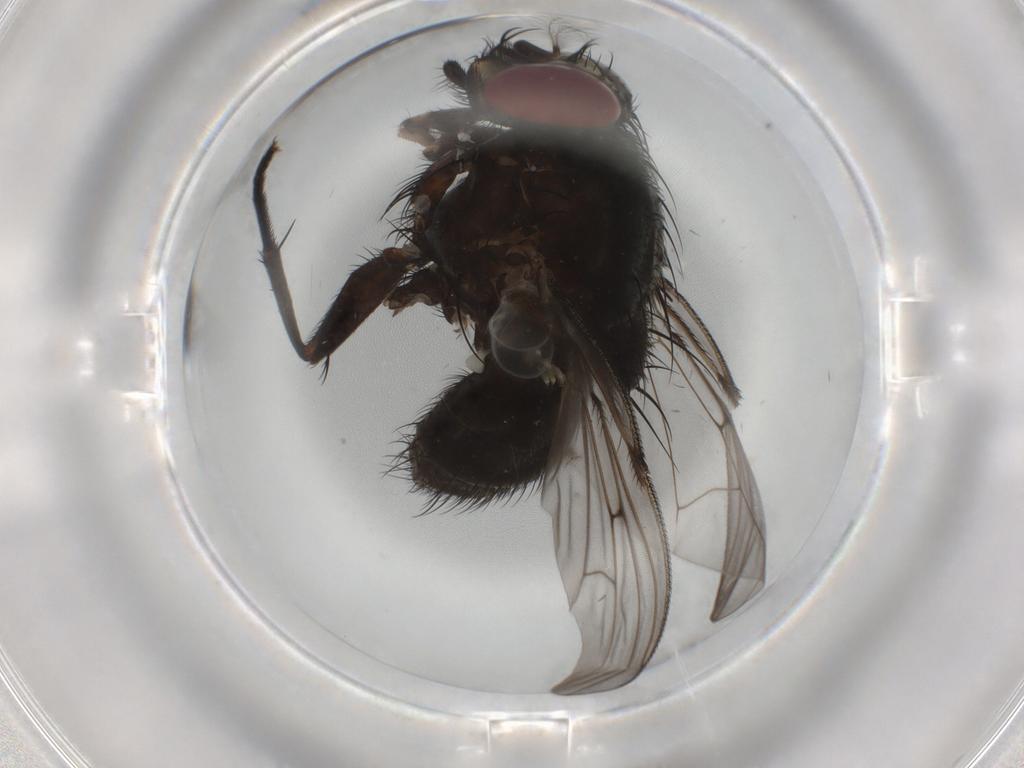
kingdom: Animalia
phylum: Arthropoda
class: Insecta
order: Diptera
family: Muscidae
